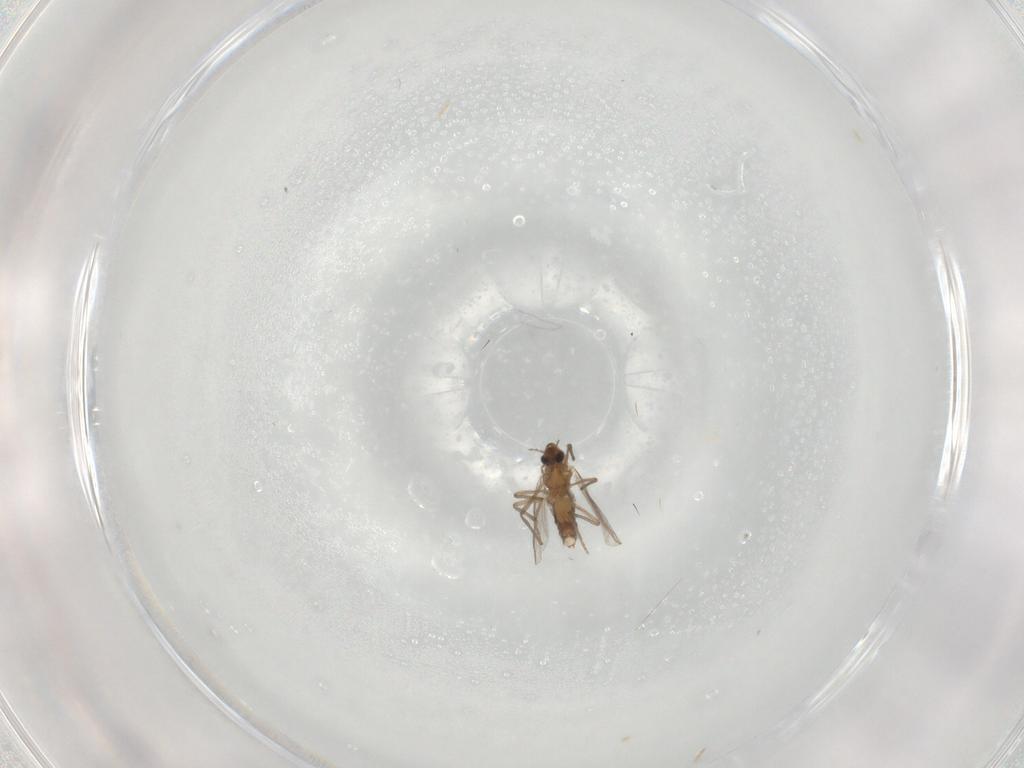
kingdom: Animalia
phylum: Arthropoda
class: Insecta
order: Diptera
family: Chironomidae
